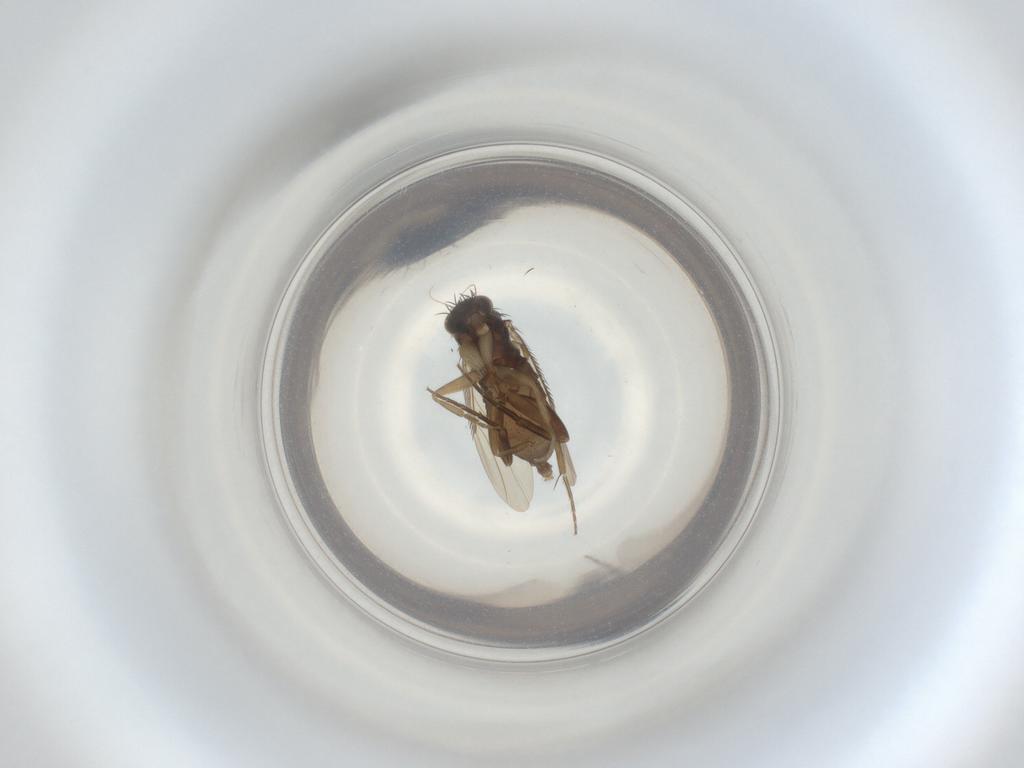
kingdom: Animalia
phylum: Arthropoda
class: Insecta
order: Diptera
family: Phoridae
